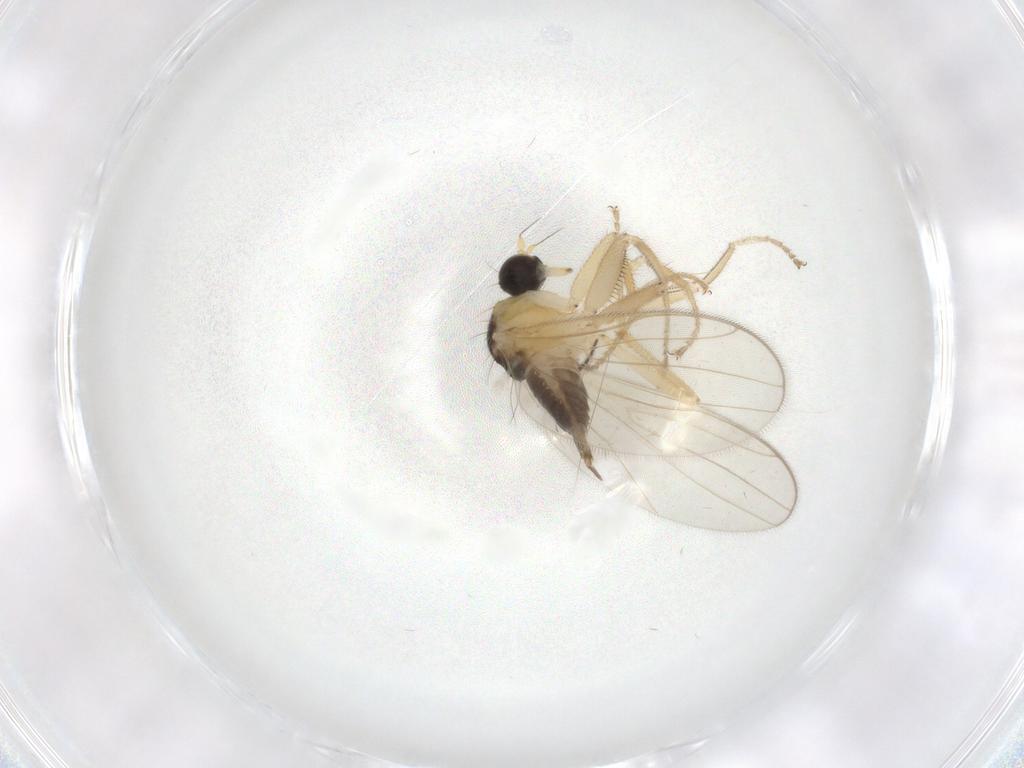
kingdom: Animalia
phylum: Arthropoda
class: Insecta
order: Diptera
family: Hybotidae
